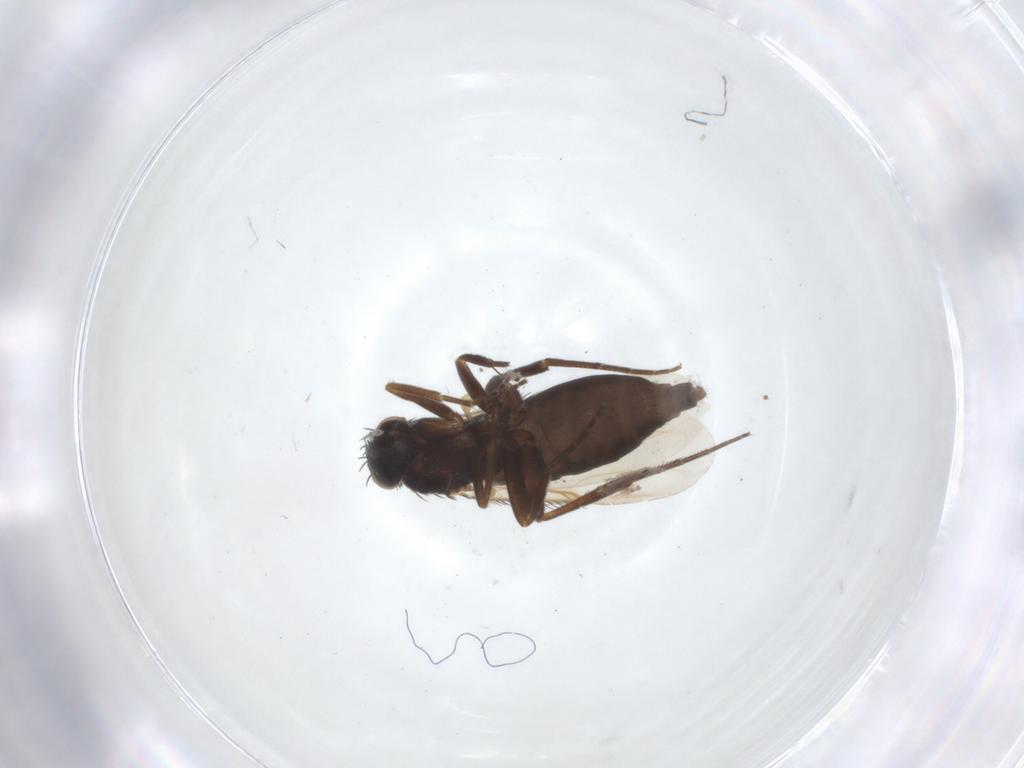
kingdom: Animalia
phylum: Arthropoda
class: Insecta
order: Diptera
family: Phoridae
